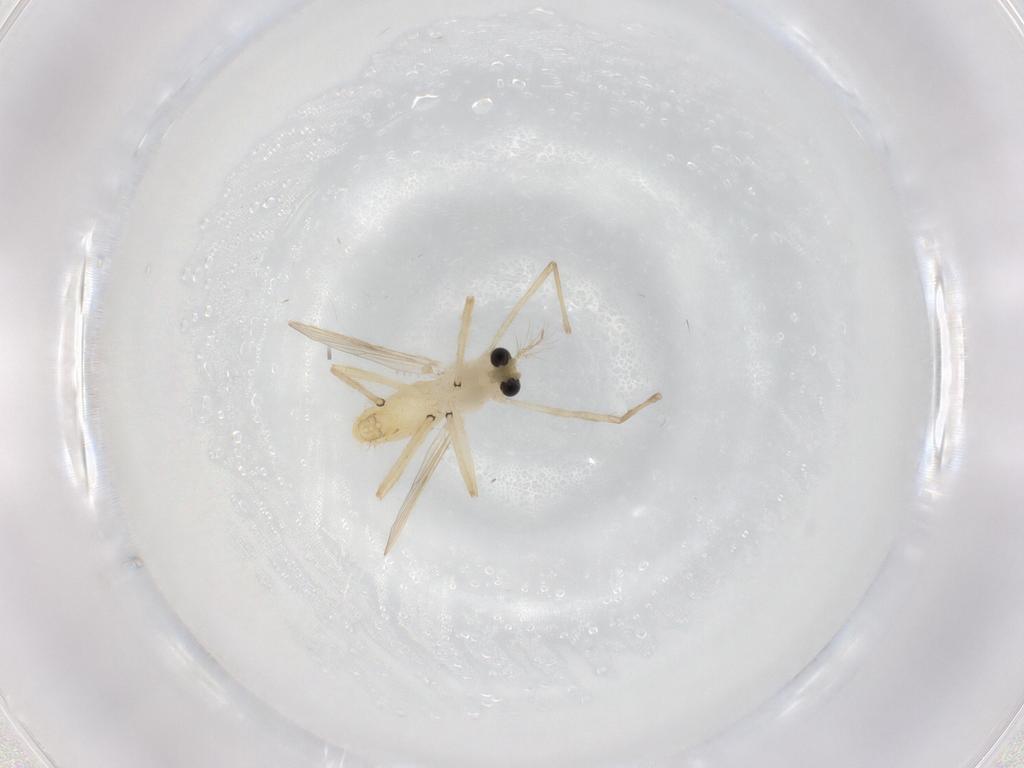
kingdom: Animalia
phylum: Arthropoda
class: Insecta
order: Diptera
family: Chironomidae
